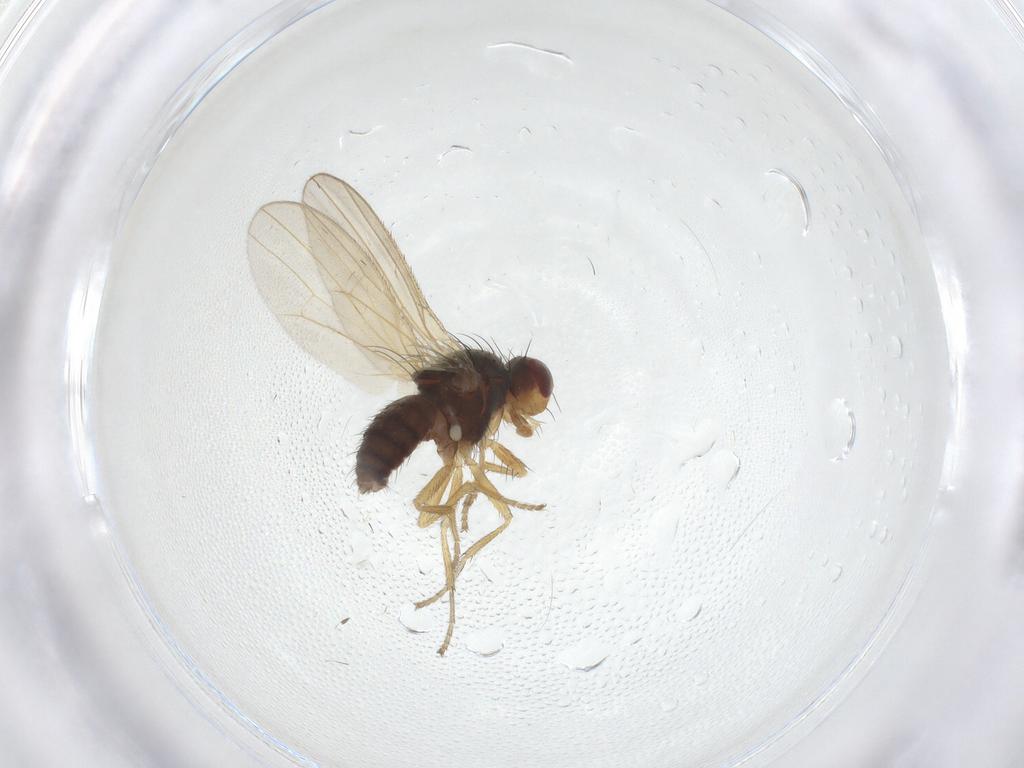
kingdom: Animalia
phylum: Arthropoda
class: Insecta
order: Diptera
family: Heleomyzidae
